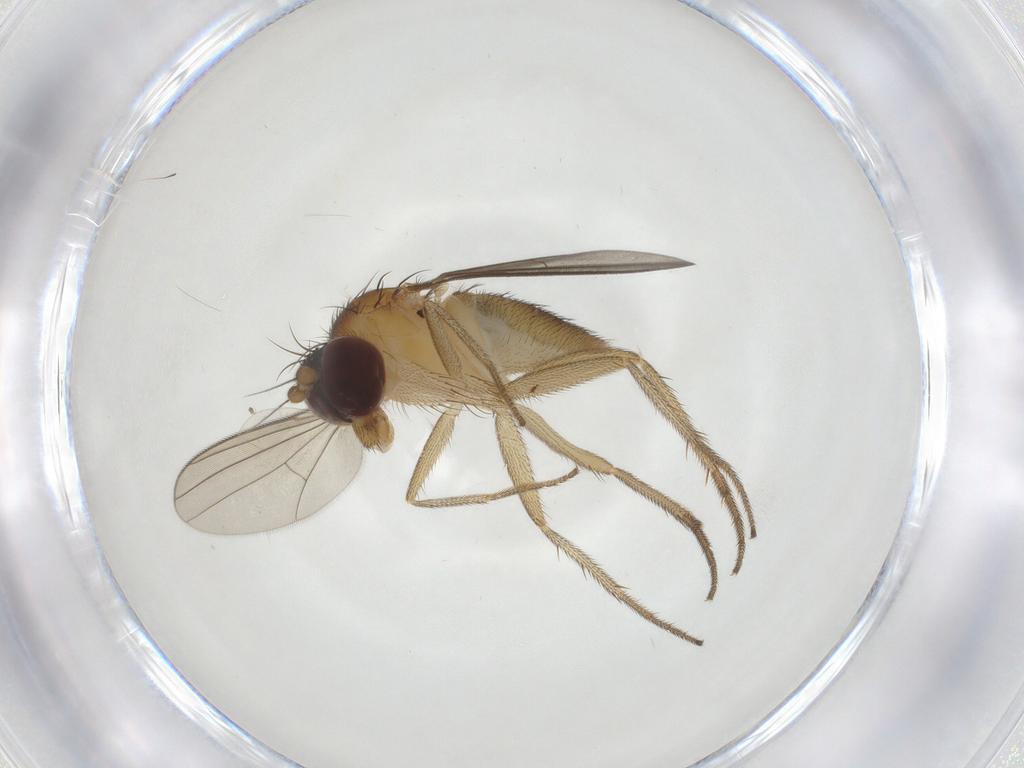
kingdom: Animalia
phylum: Arthropoda
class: Insecta
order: Diptera
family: Dolichopodidae
